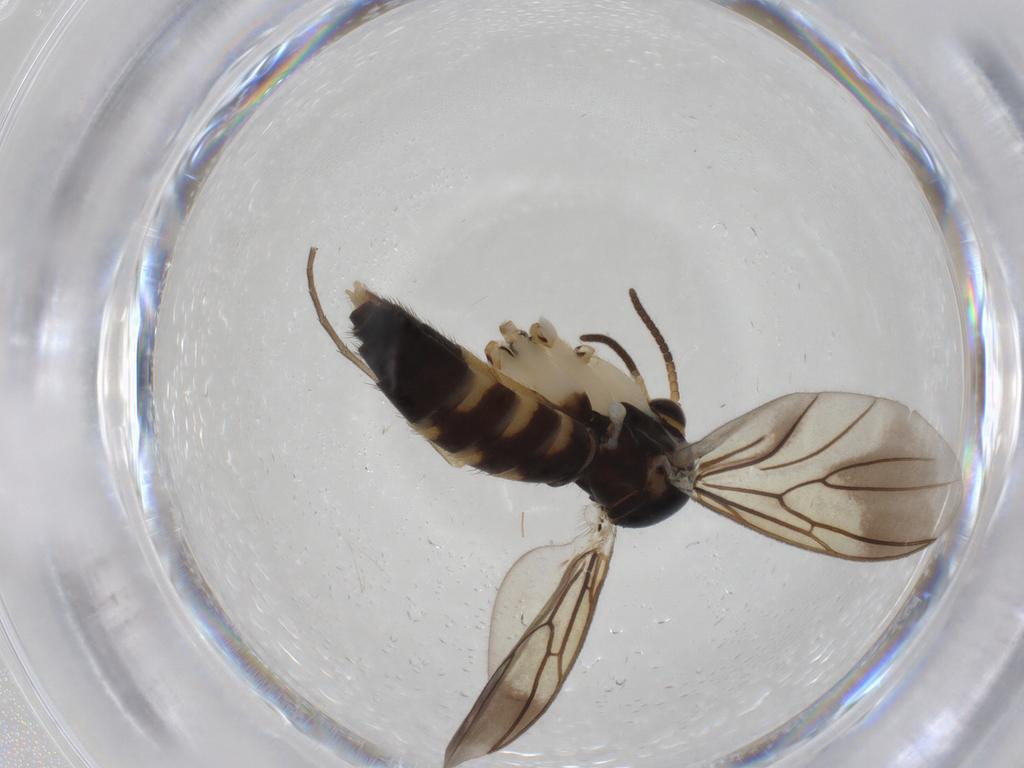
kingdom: Animalia
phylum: Arthropoda
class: Insecta
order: Diptera
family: Mycetophilidae
